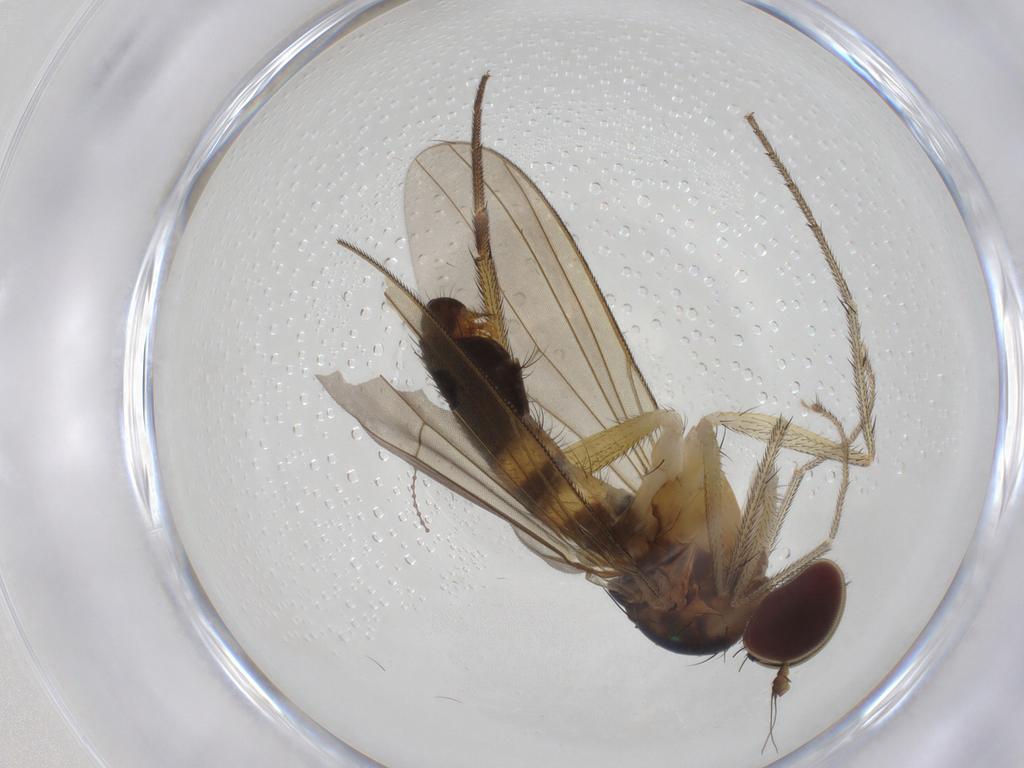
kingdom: Animalia
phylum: Arthropoda
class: Insecta
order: Diptera
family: Dolichopodidae
